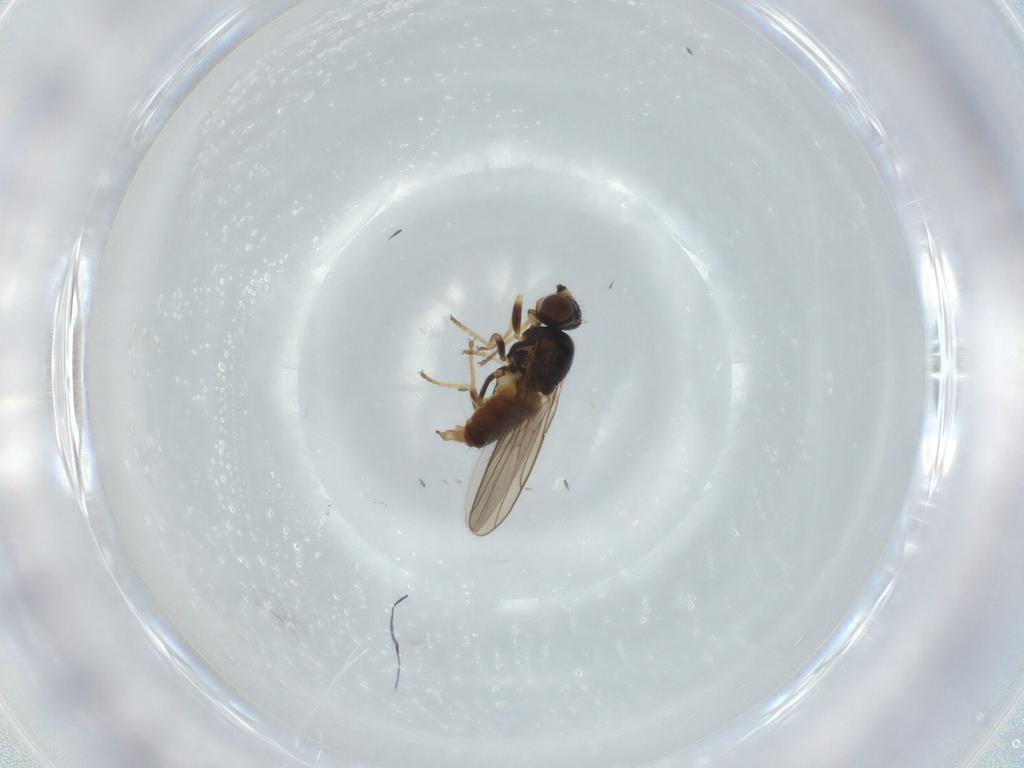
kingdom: Animalia
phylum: Arthropoda
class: Insecta
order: Diptera
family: Chloropidae
